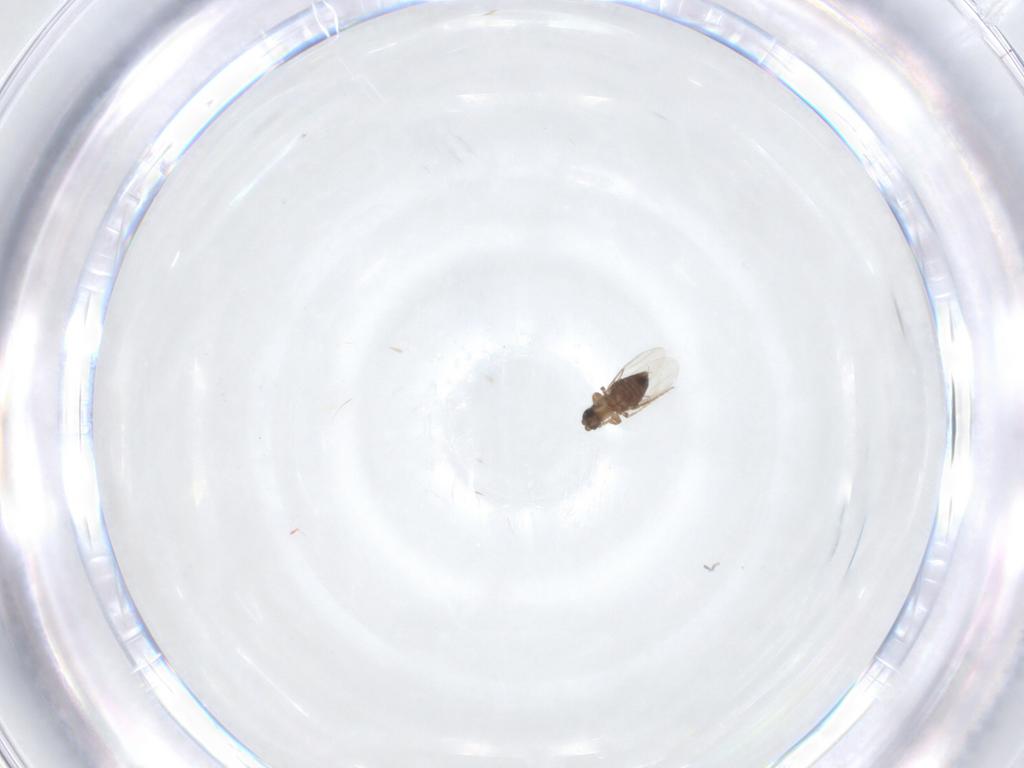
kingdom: Animalia
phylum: Arthropoda
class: Insecta
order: Diptera
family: Phoridae
